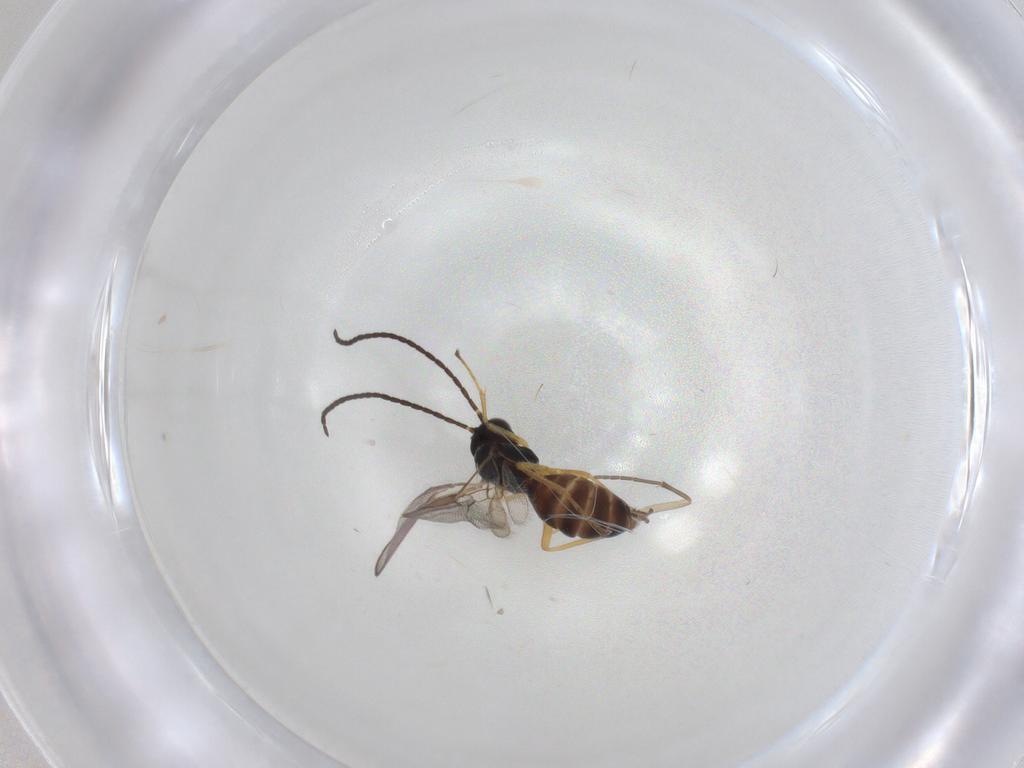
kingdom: Animalia
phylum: Arthropoda
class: Insecta
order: Hymenoptera
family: Braconidae
